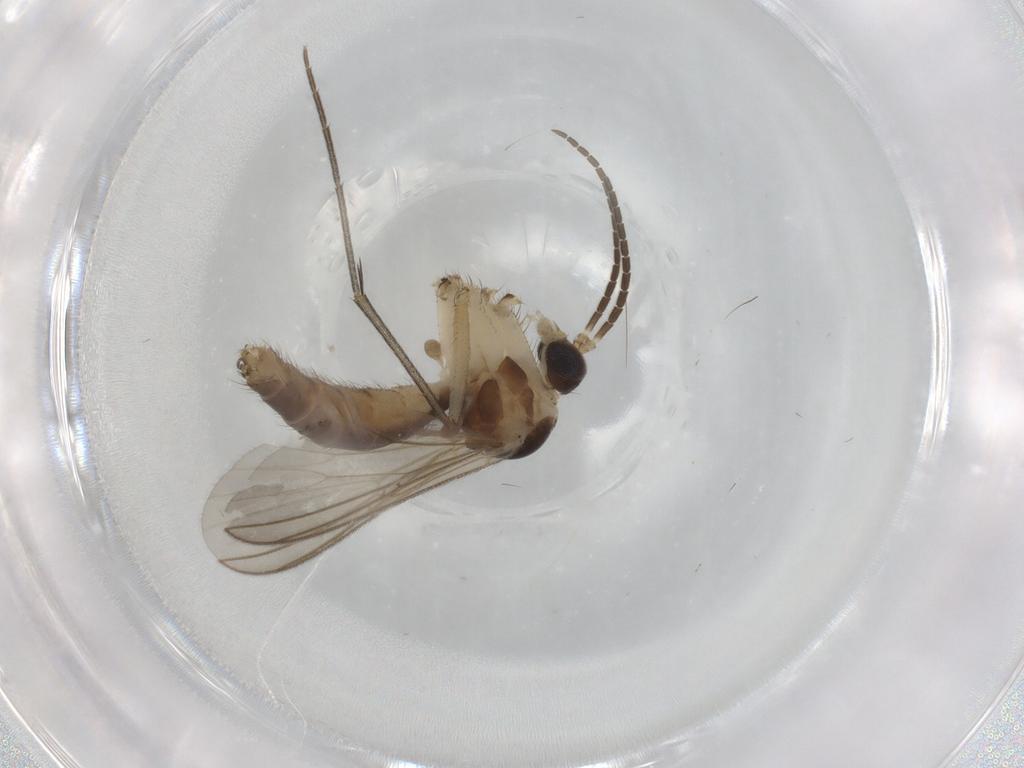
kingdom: Animalia
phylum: Arthropoda
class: Insecta
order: Diptera
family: Mycetophilidae
